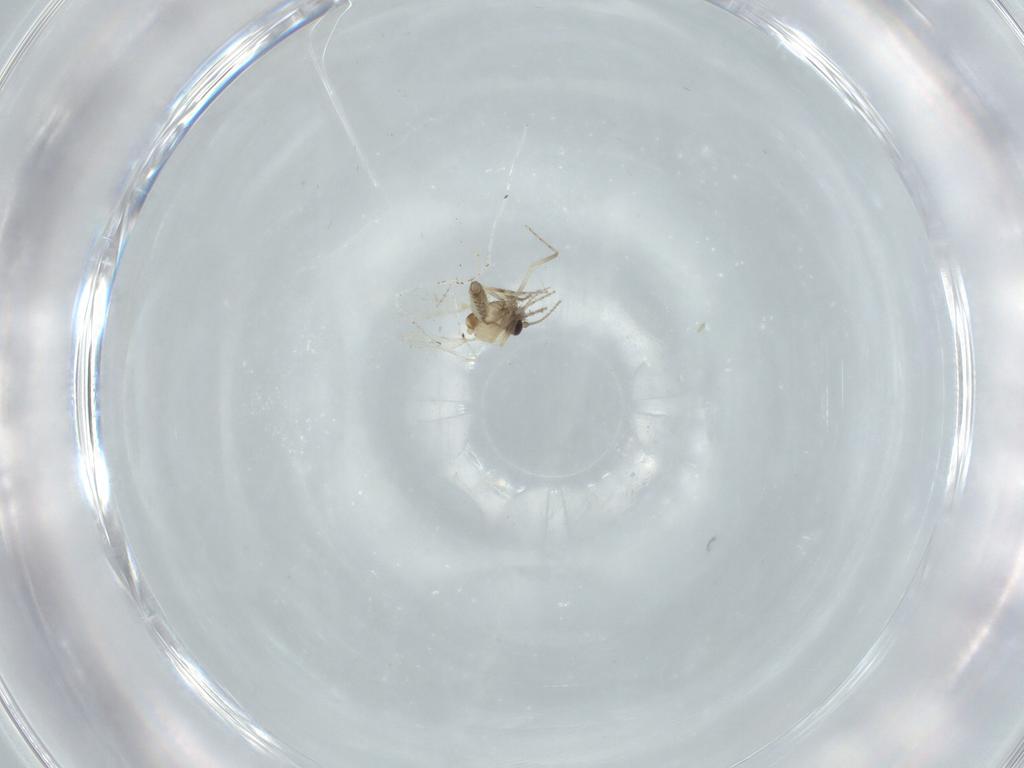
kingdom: Animalia
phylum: Arthropoda
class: Insecta
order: Diptera
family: Ceratopogonidae
